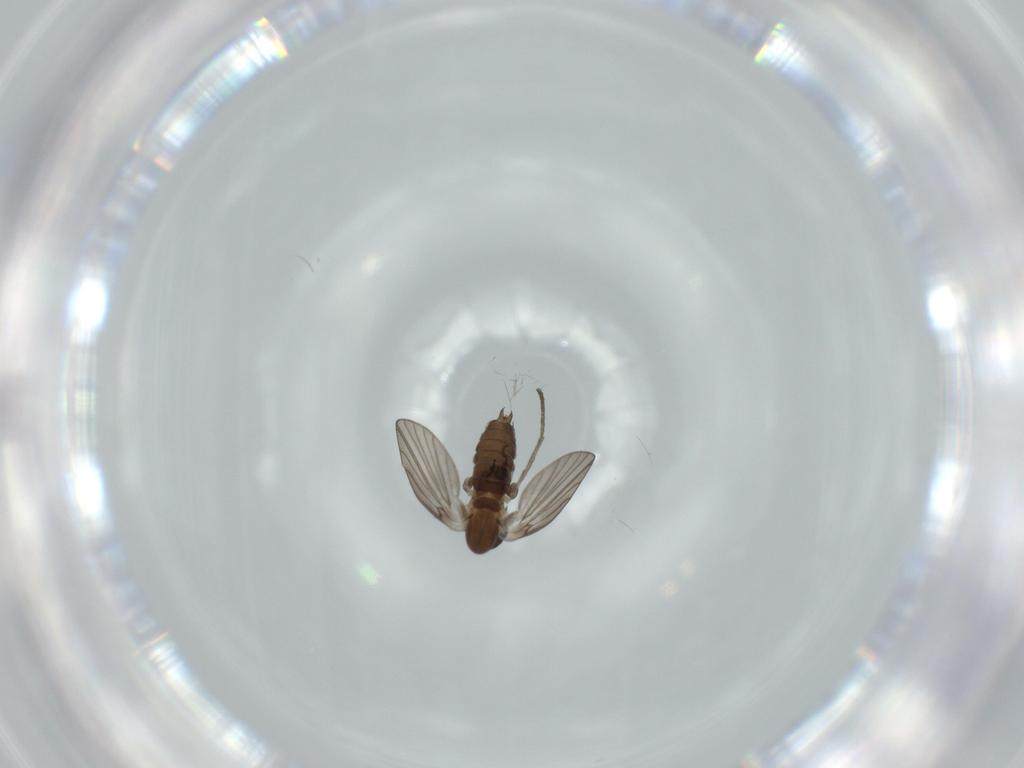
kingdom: Animalia
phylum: Arthropoda
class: Insecta
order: Diptera
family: Psychodidae
